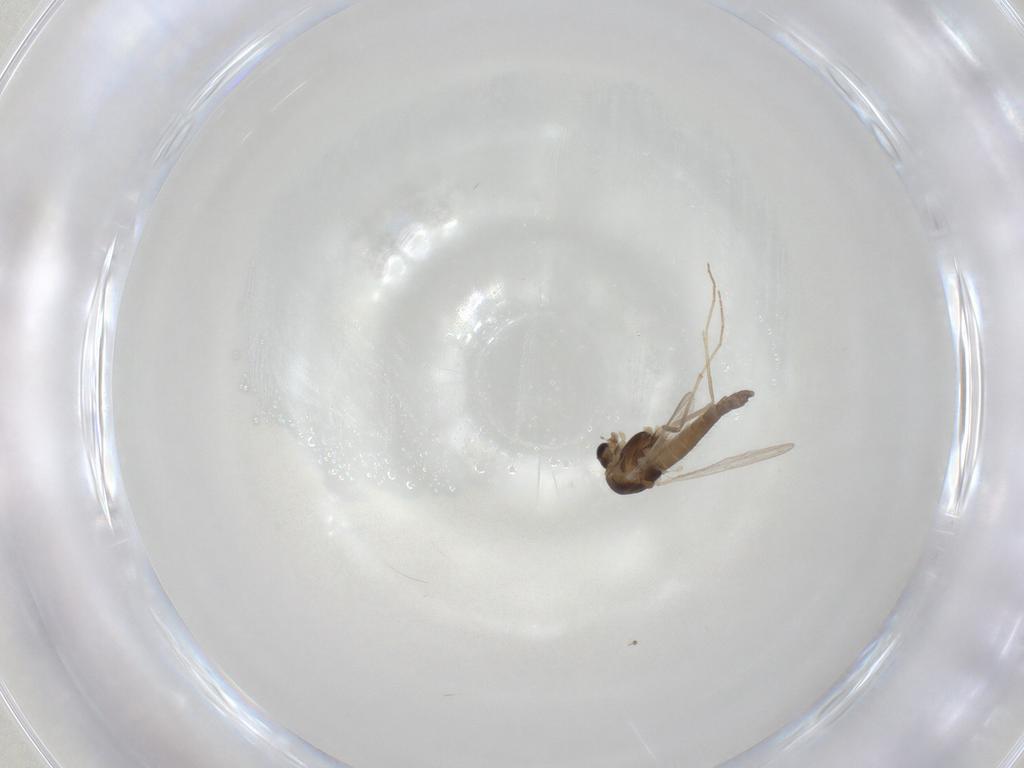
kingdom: Animalia
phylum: Arthropoda
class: Insecta
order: Diptera
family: Chironomidae
